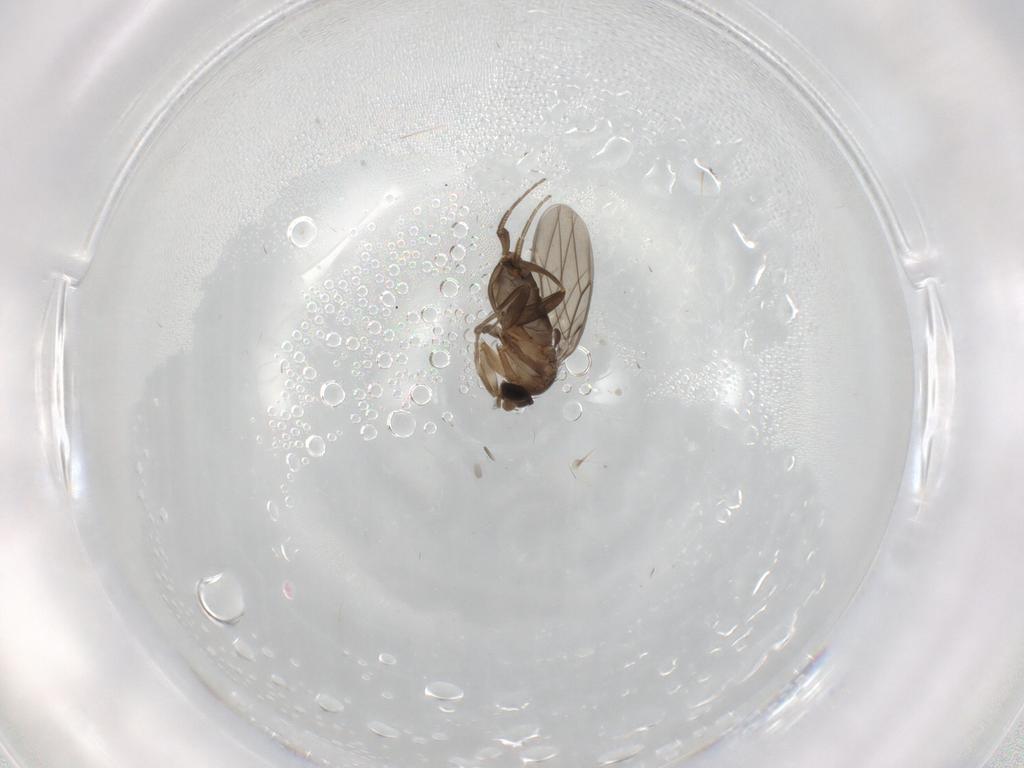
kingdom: Animalia
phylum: Arthropoda
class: Insecta
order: Diptera
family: Phoridae
